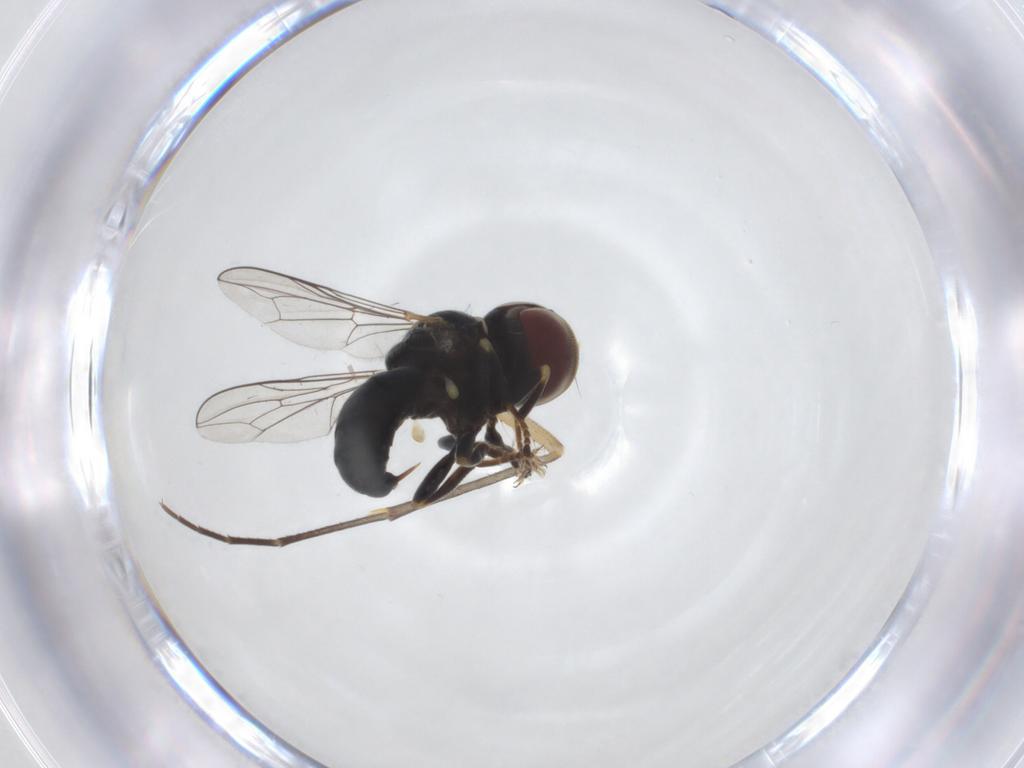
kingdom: Animalia
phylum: Arthropoda
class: Insecta
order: Diptera
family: Pipunculidae
